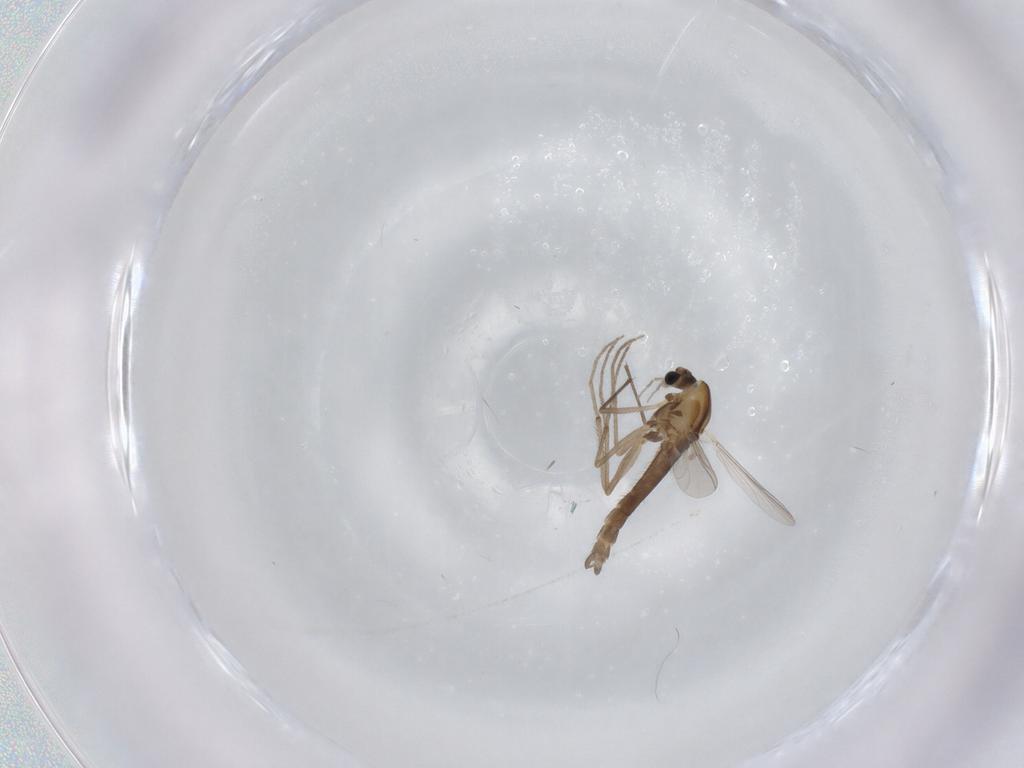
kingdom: Animalia
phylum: Arthropoda
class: Insecta
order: Diptera
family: Chironomidae
